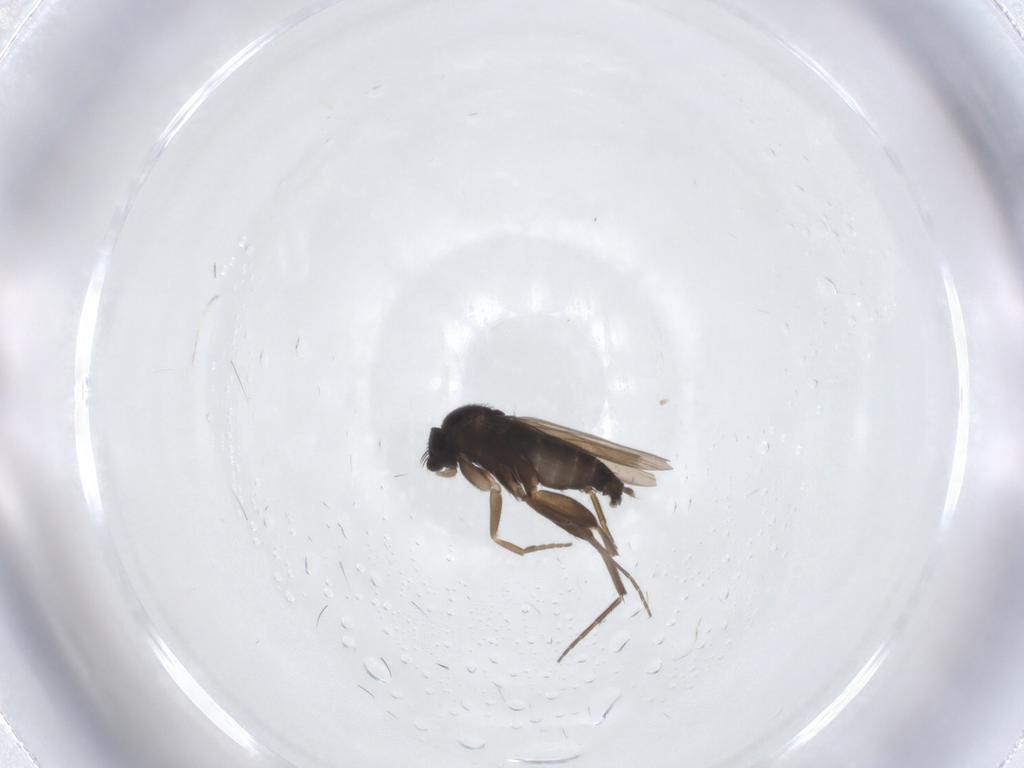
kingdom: Animalia
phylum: Arthropoda
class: Insecta
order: Diptera
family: Phoridae
